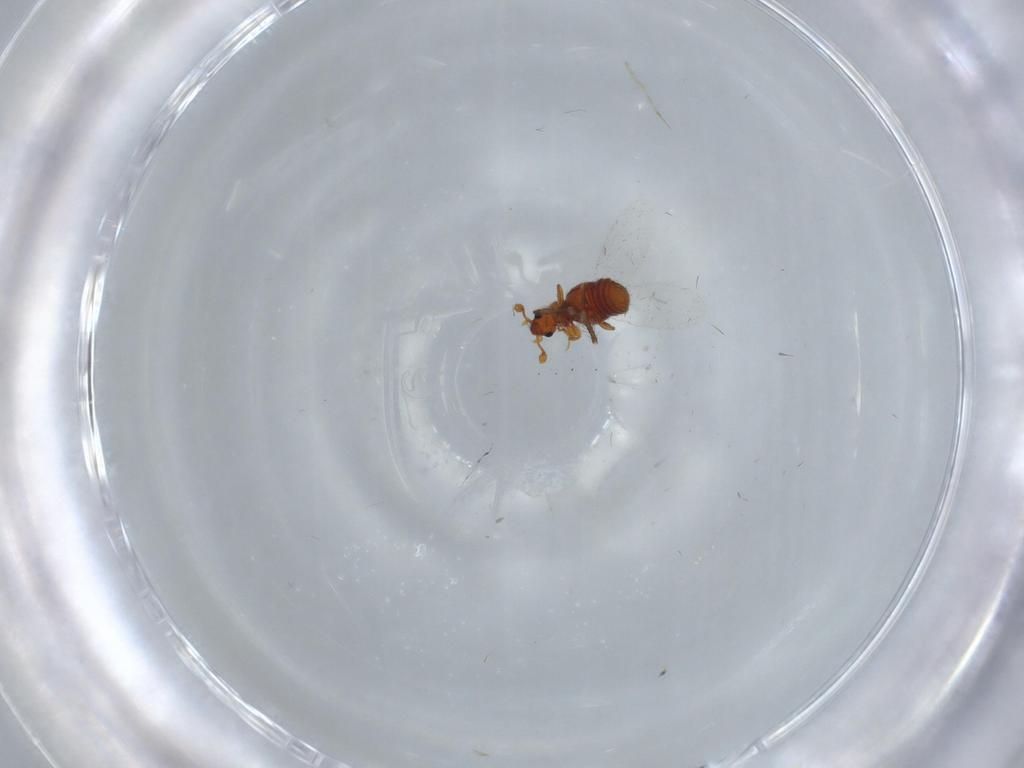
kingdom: Animalia
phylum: Arthropoda
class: Insecta
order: Coleoptera
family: Staphylinidae
